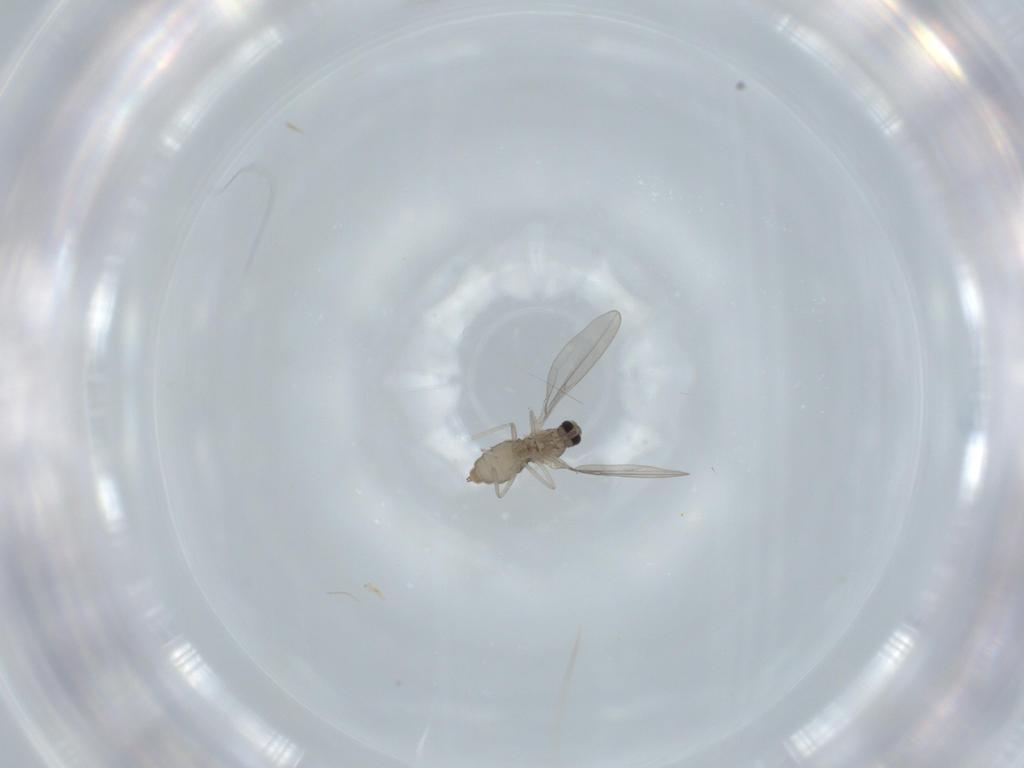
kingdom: Animalia
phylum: Arthropoda
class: Insecta
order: Diptera
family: Cecidomyiidae
